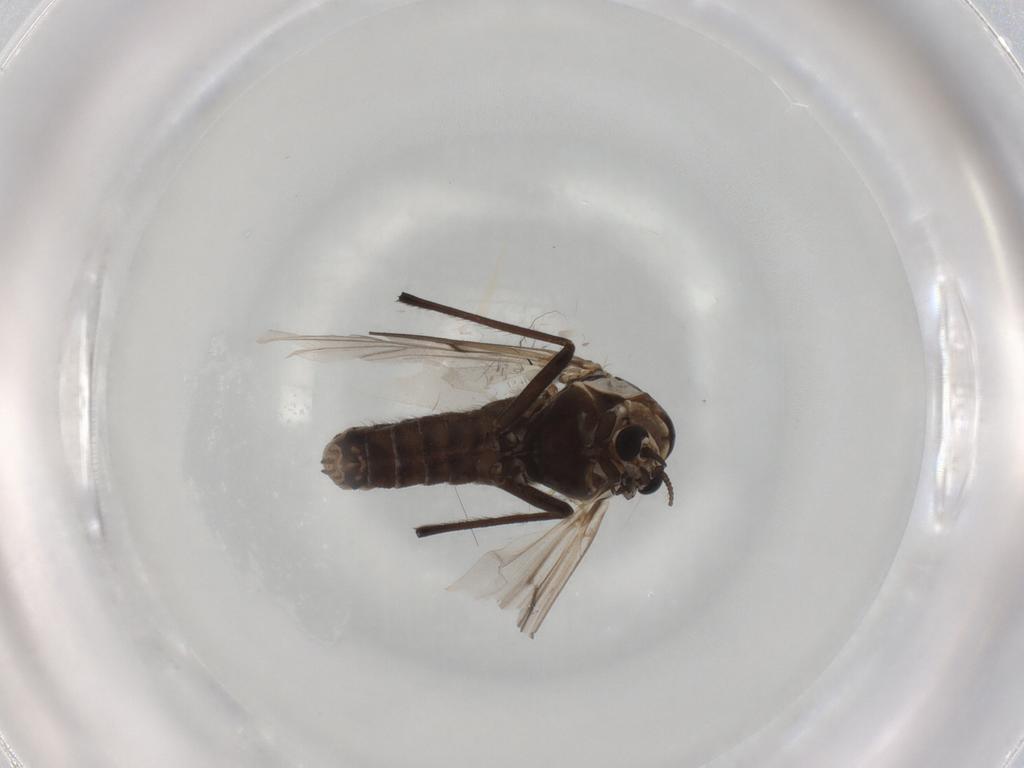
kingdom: Animalia
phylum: Arthropoda
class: Insecta
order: Diptera
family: Chironomidae
